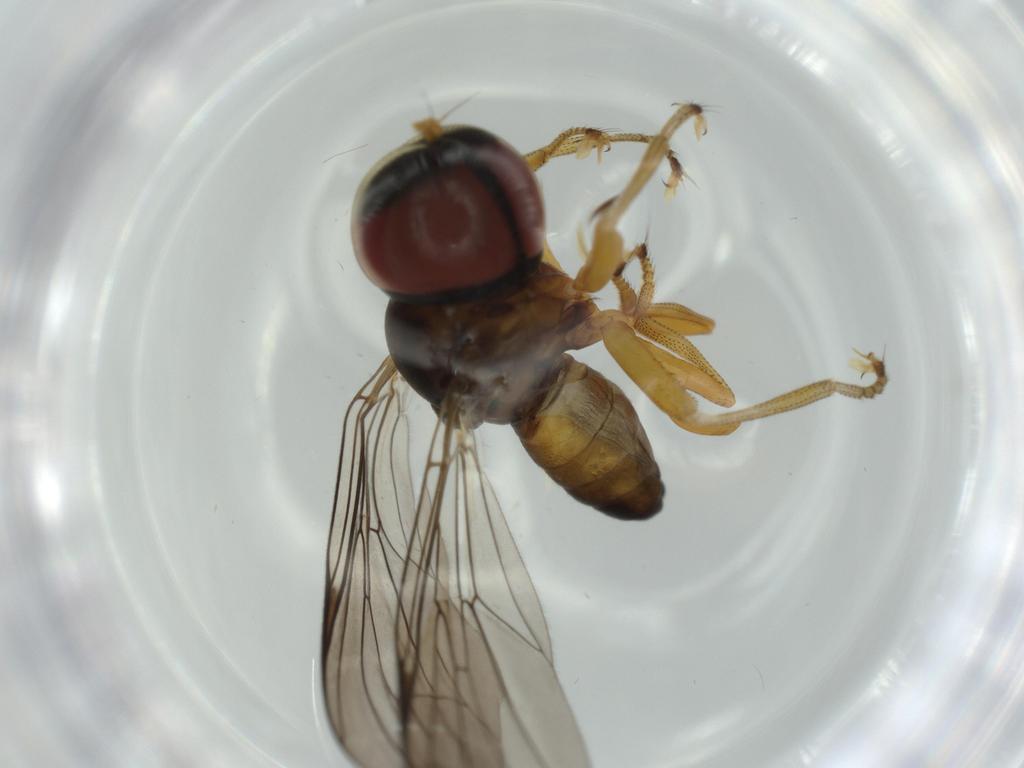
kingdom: Animalia
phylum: Arthropoda
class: Insecta
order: Diptera
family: Pipunculidae
